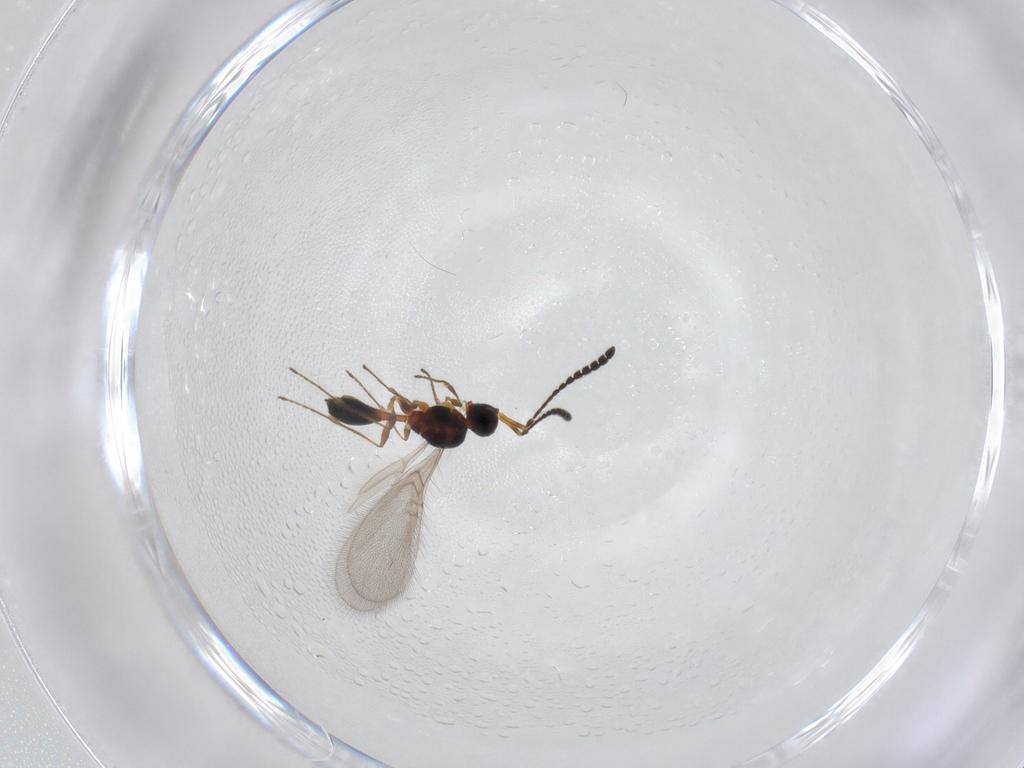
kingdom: Animalia
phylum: Arthropoda
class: Insecta
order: Hymenoptera
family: Diapriidae
